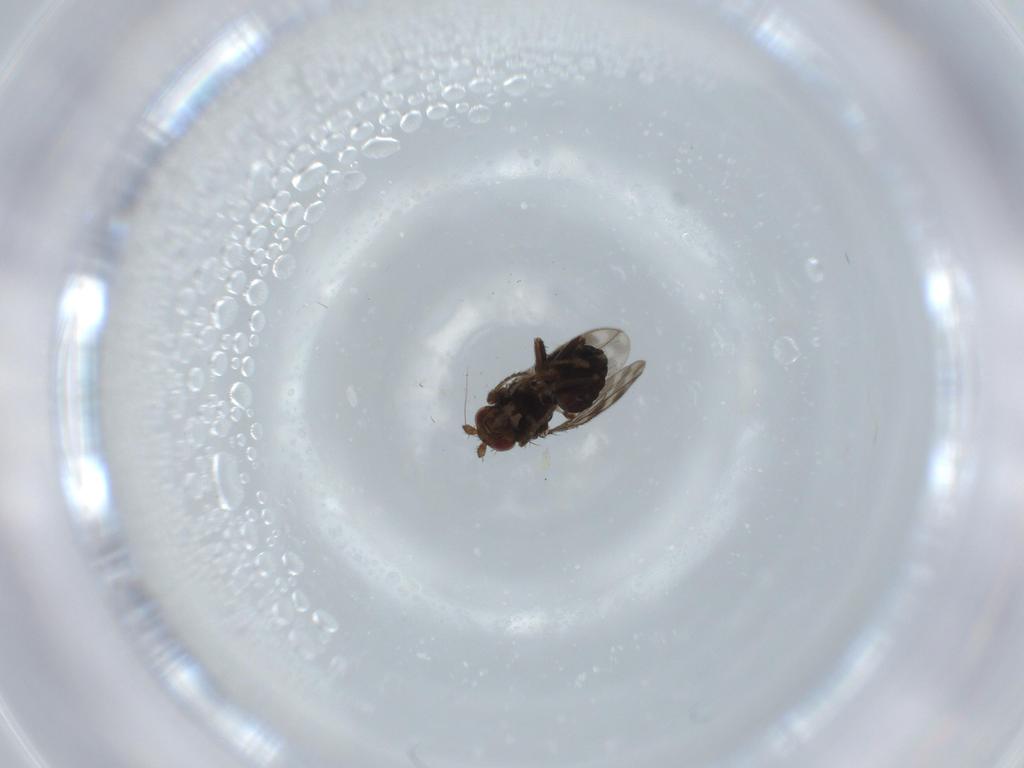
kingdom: Animalia
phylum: Arthropoda
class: Insecta
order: Diptera
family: Sphaeroceridae
